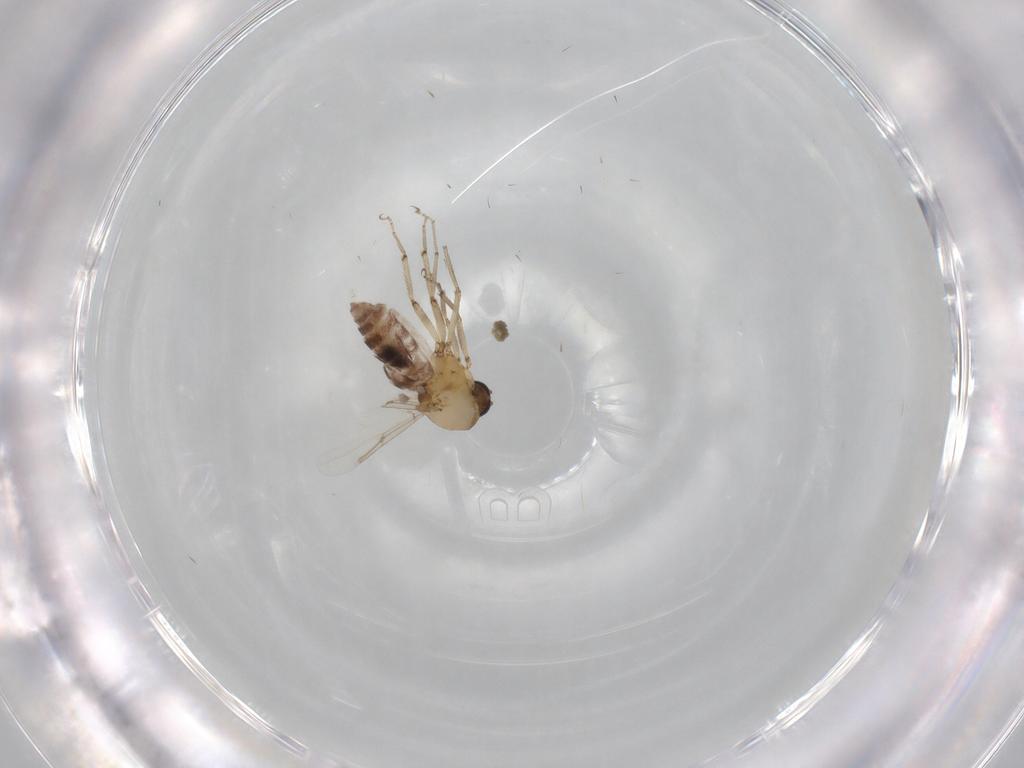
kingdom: Animalia
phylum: Arthropoda
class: Insecta
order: Diptera
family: Ceratopogonidae
